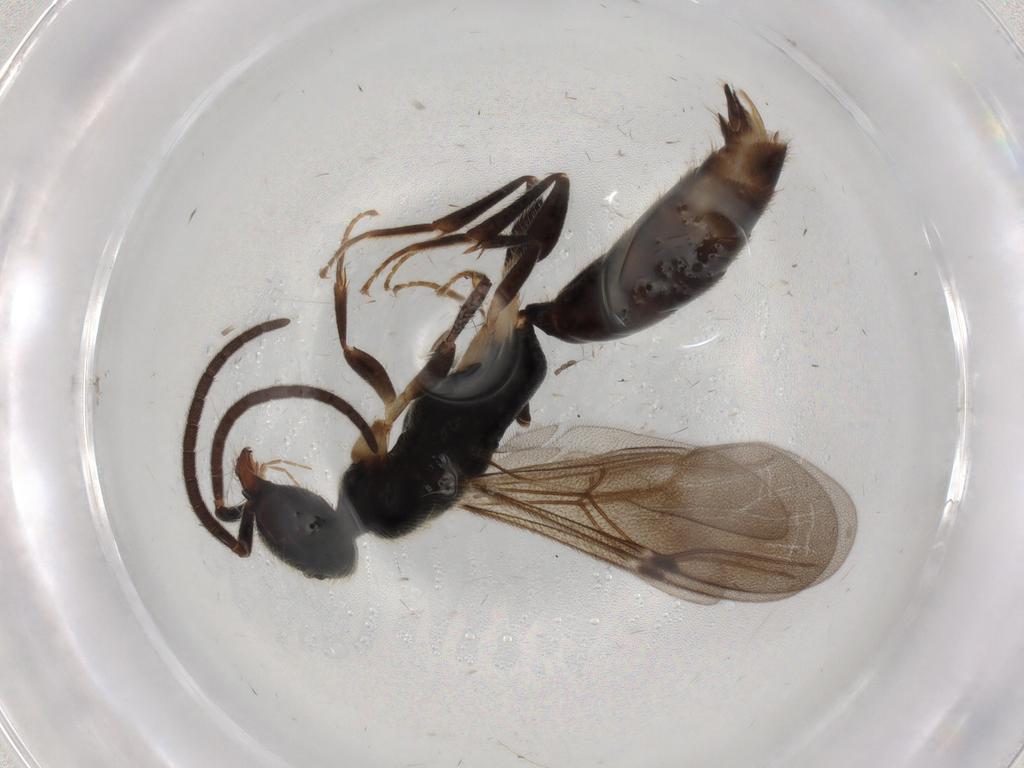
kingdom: Animalia
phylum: Arthropoda
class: Insecta
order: Hymenoptera
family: Bethylidae
